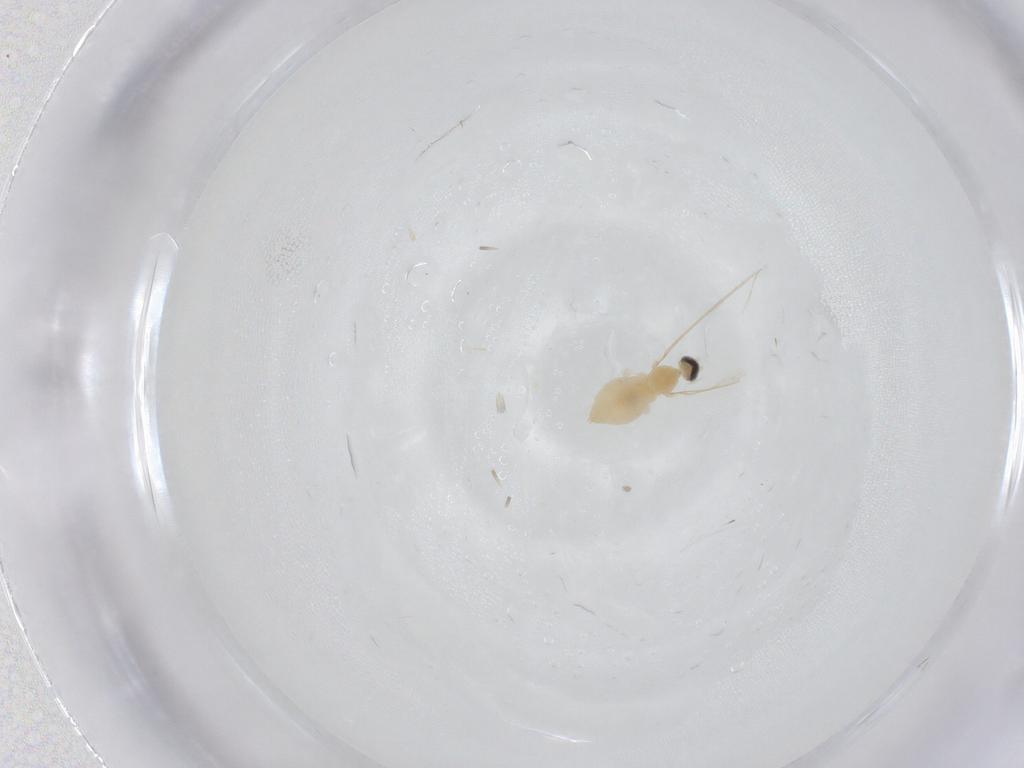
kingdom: Animalia
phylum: Arthropoda
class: Insecta
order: Diptera
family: Cecidomyiidae
